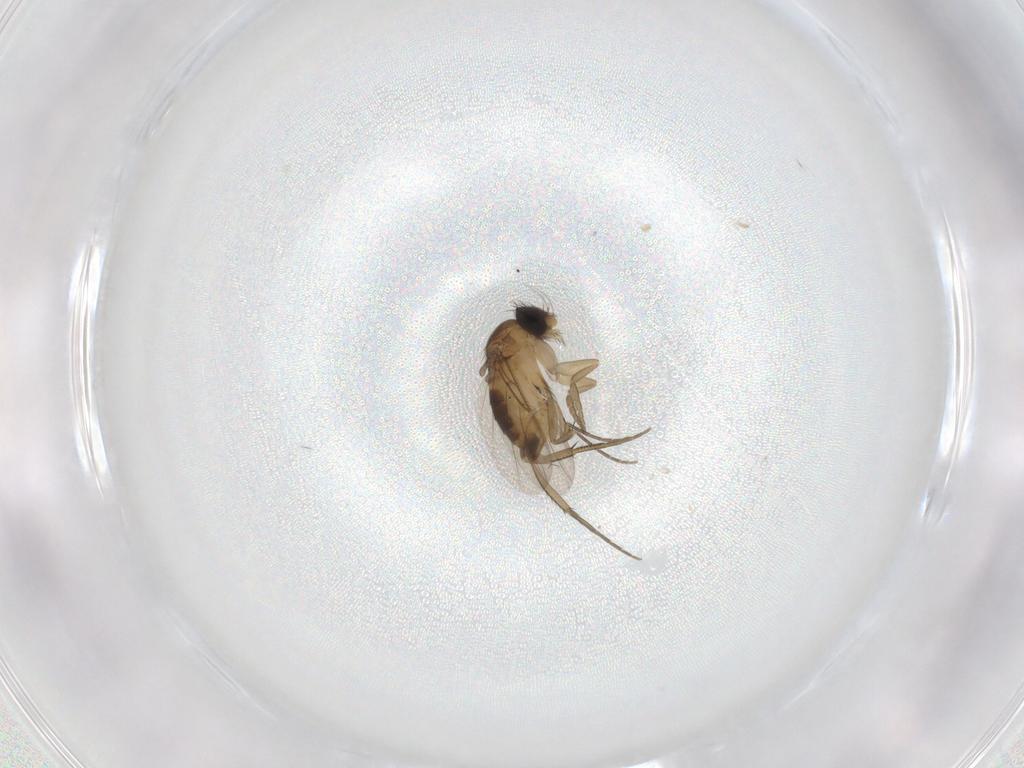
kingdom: Animalia
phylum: Arthropoda
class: Insecta
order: Diptera
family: Phoridae
